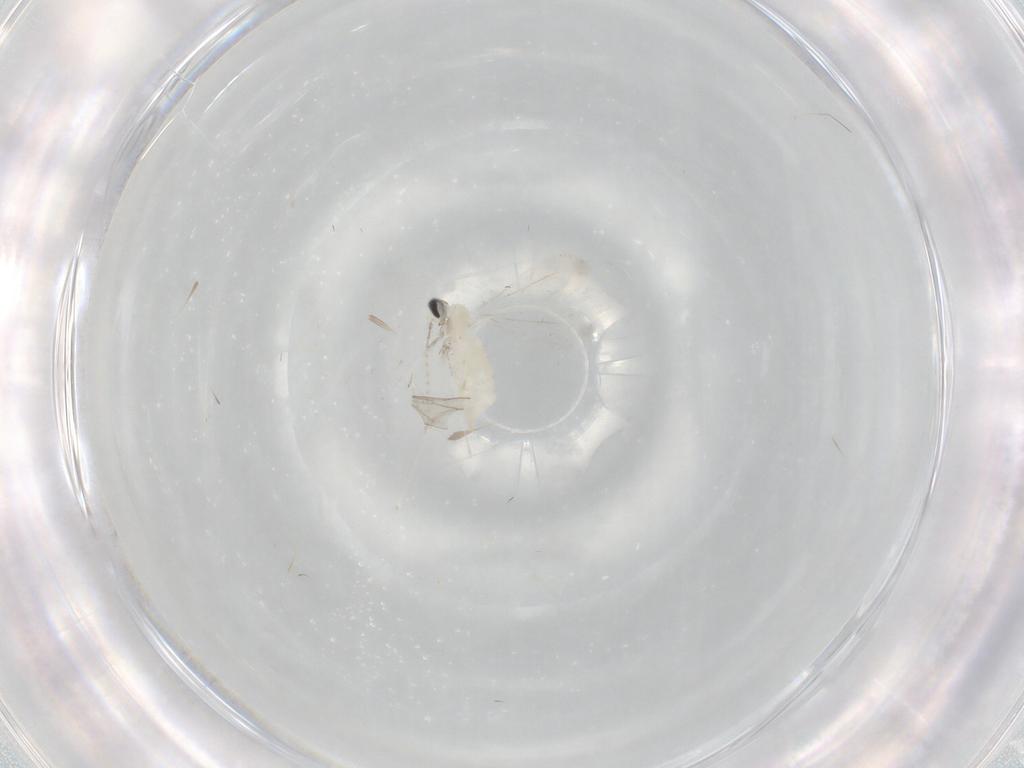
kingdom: Animalia
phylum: Arthropoda
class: Insecta
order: Diptera
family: Cecidomyiidae
